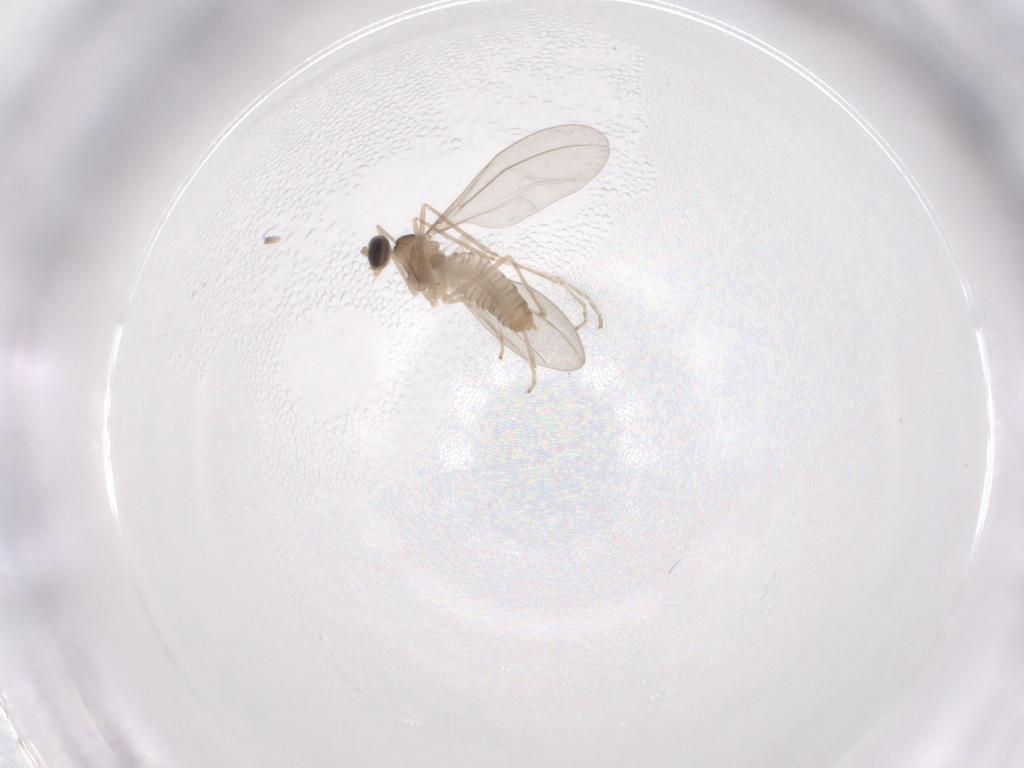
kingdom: Animalia
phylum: Arthropoda
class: Insecta
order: Diptera
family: Cecidomyiidae
